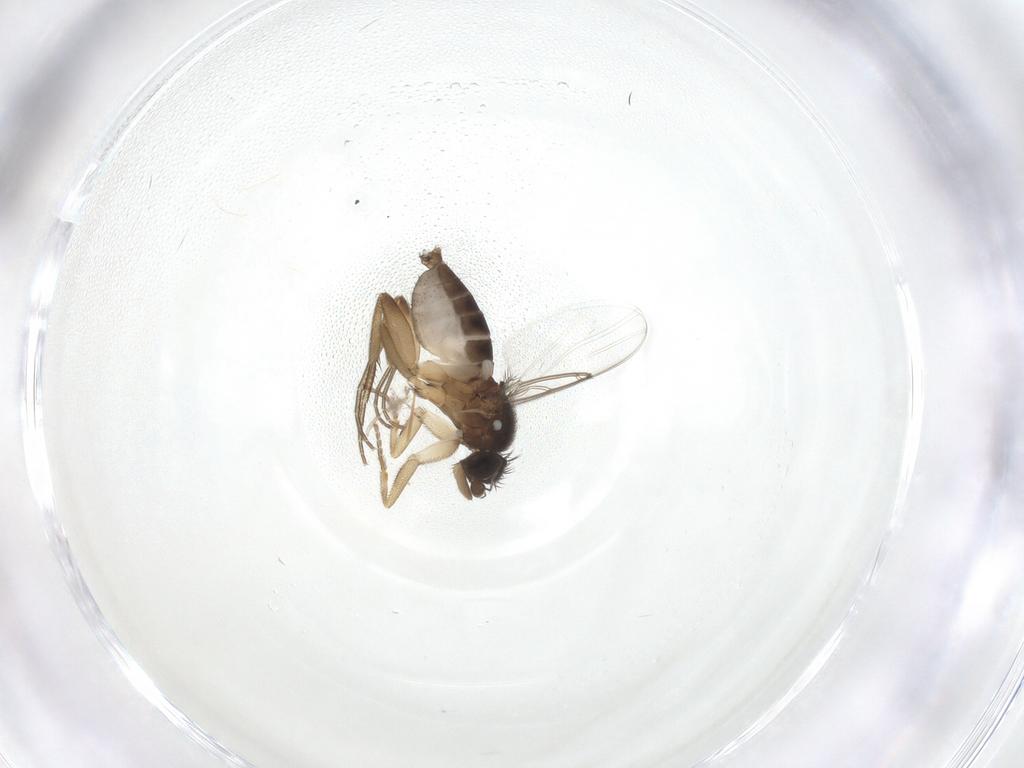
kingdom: Animalia
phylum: Arthropoda
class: Insecta
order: Diptera
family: Phoridae
